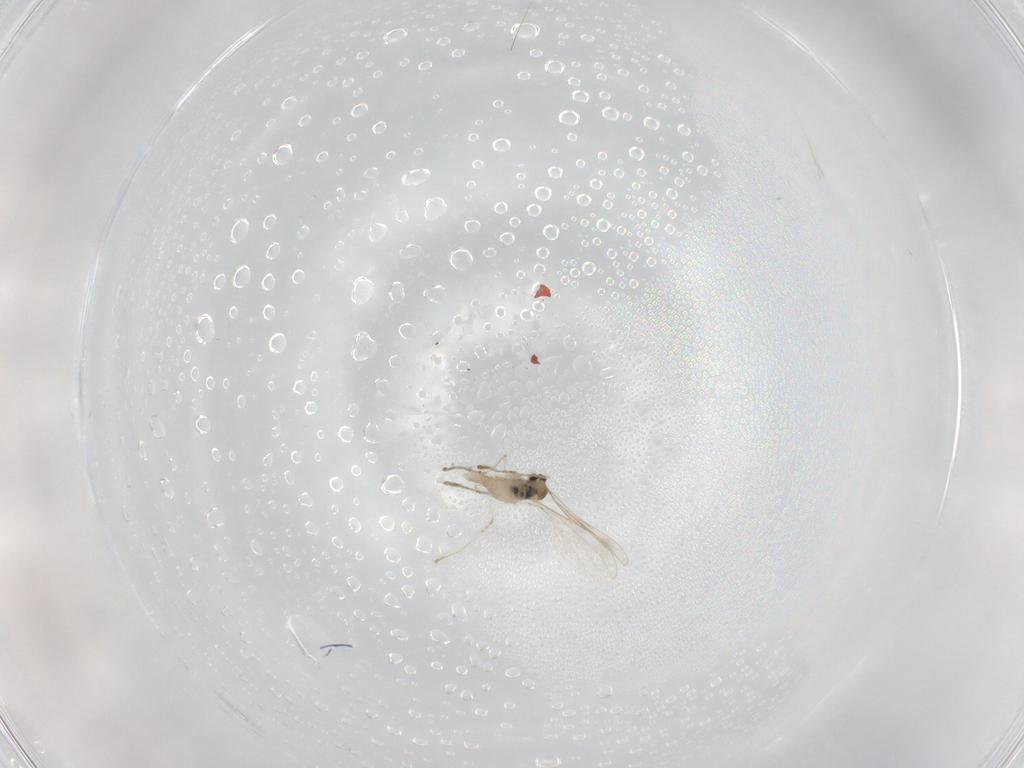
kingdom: Animalia
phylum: Arthropoda
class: Insecta
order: Diptera
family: Cecidomyiidae
